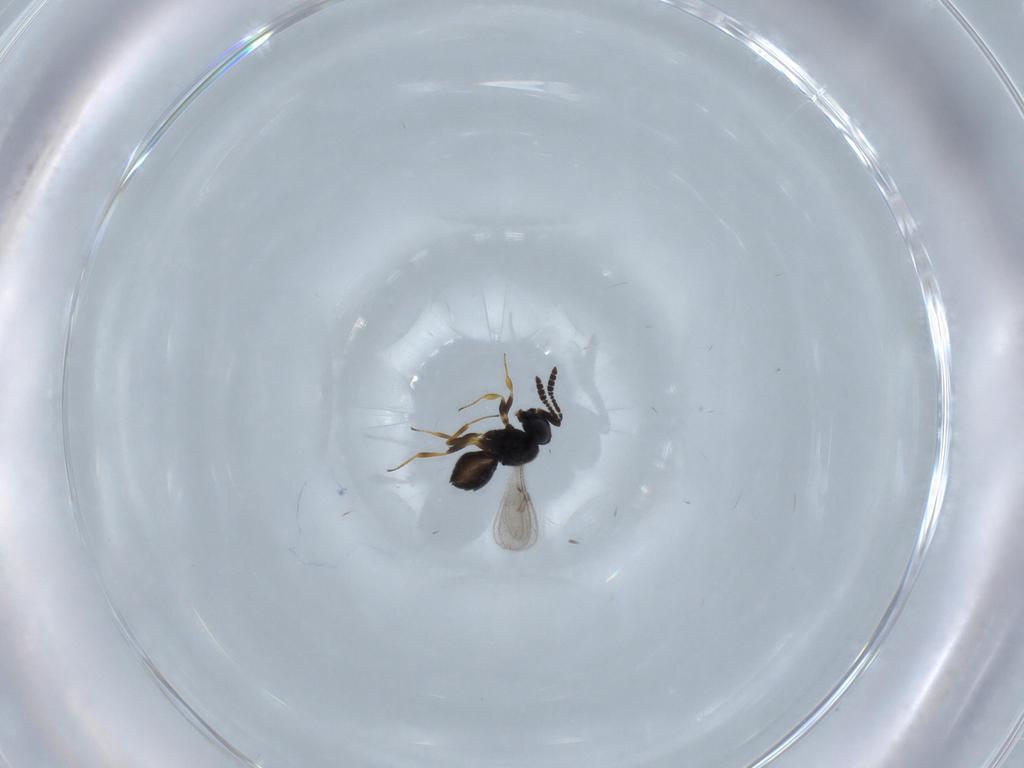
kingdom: Animalia
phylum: Arthropoda
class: Insecta
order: Hymenoptera
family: Scelionidae
